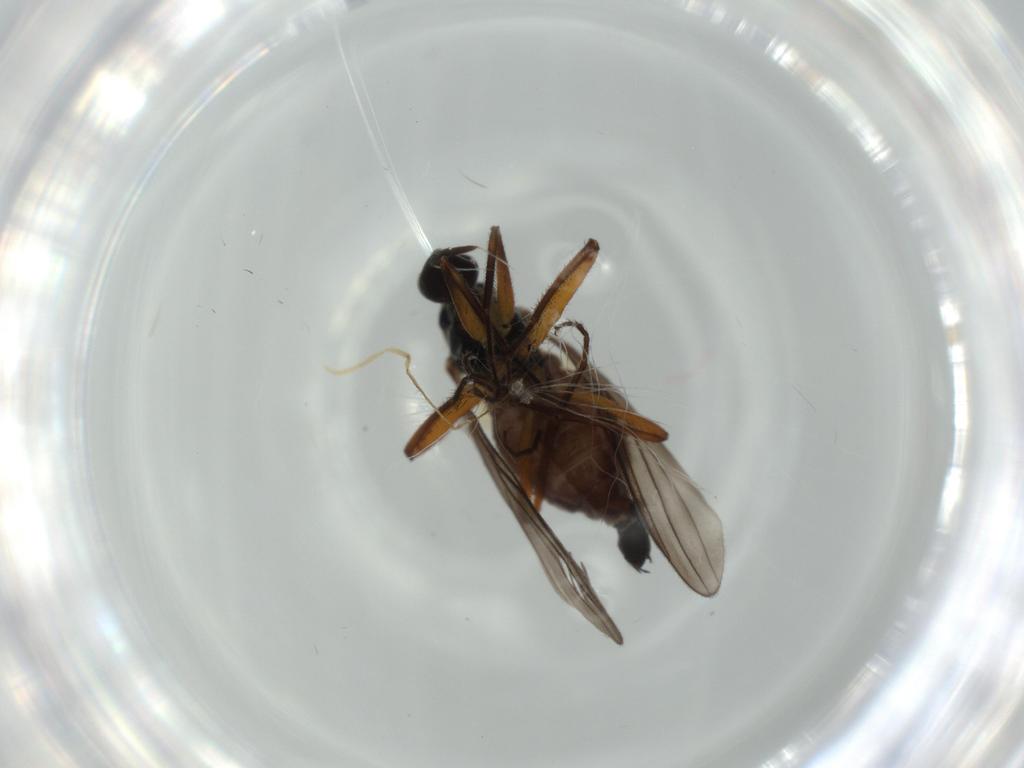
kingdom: Animalia
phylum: Arthropoda
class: Insecta
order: Diptera
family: Hybotidae
